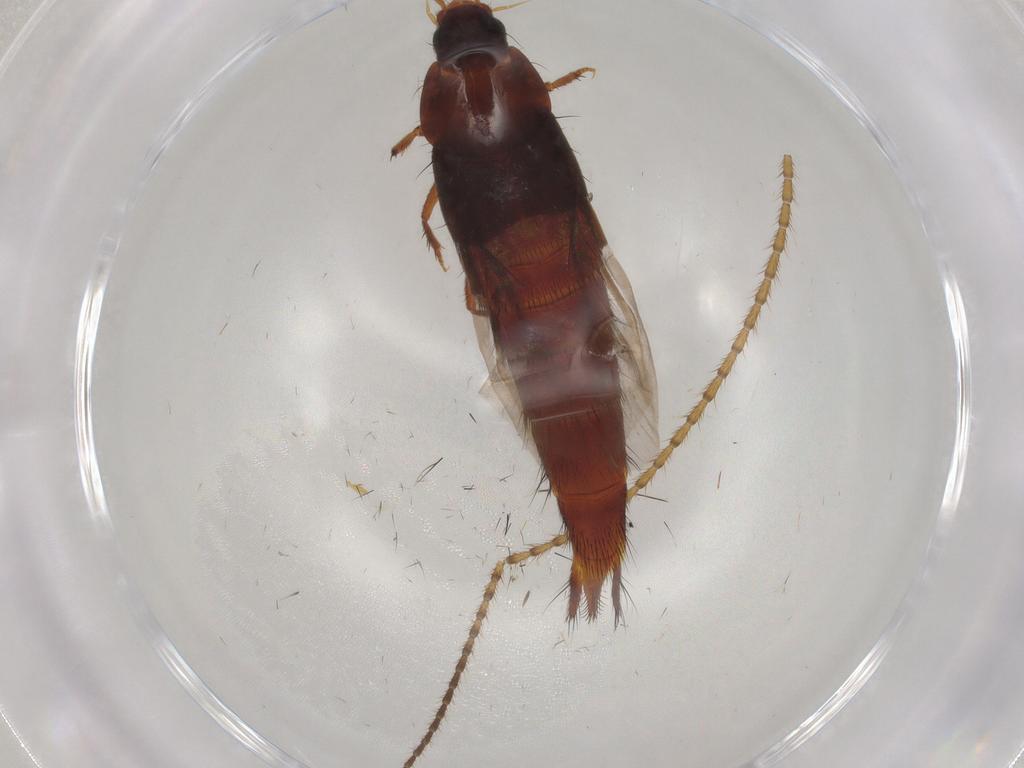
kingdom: Animalia
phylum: Arthropoda
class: Insecta
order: Coleoptera
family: Staphylinidae
